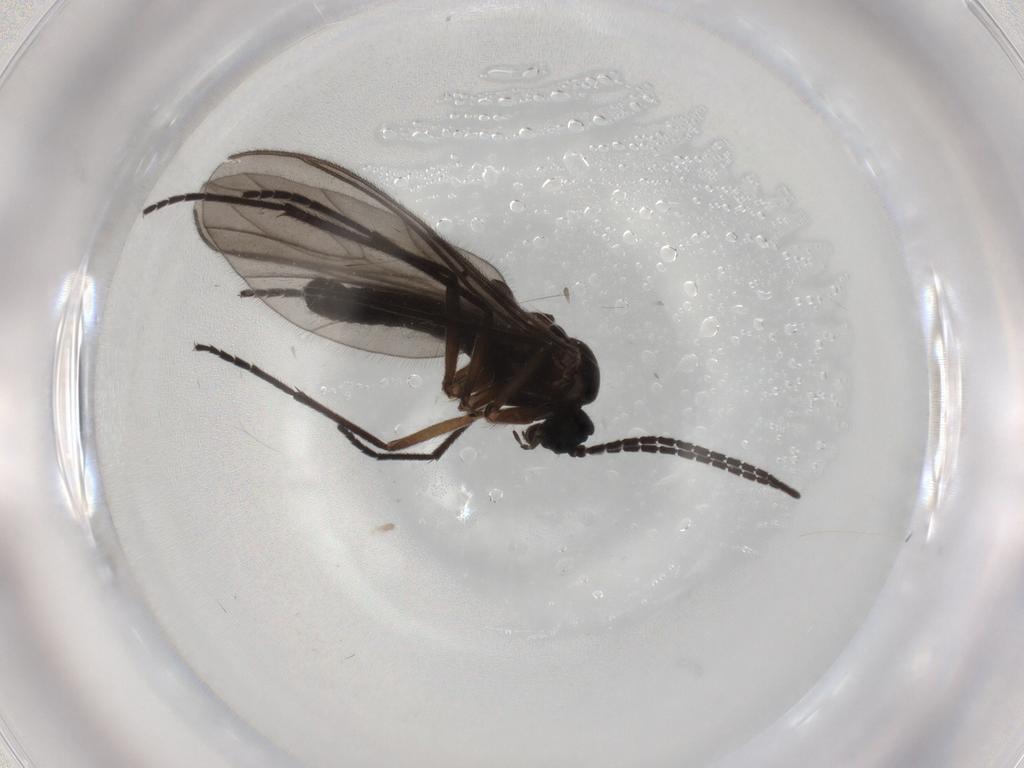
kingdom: Animalia
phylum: Arthropoda
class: Insecta
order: Diptera
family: Sciaridae
